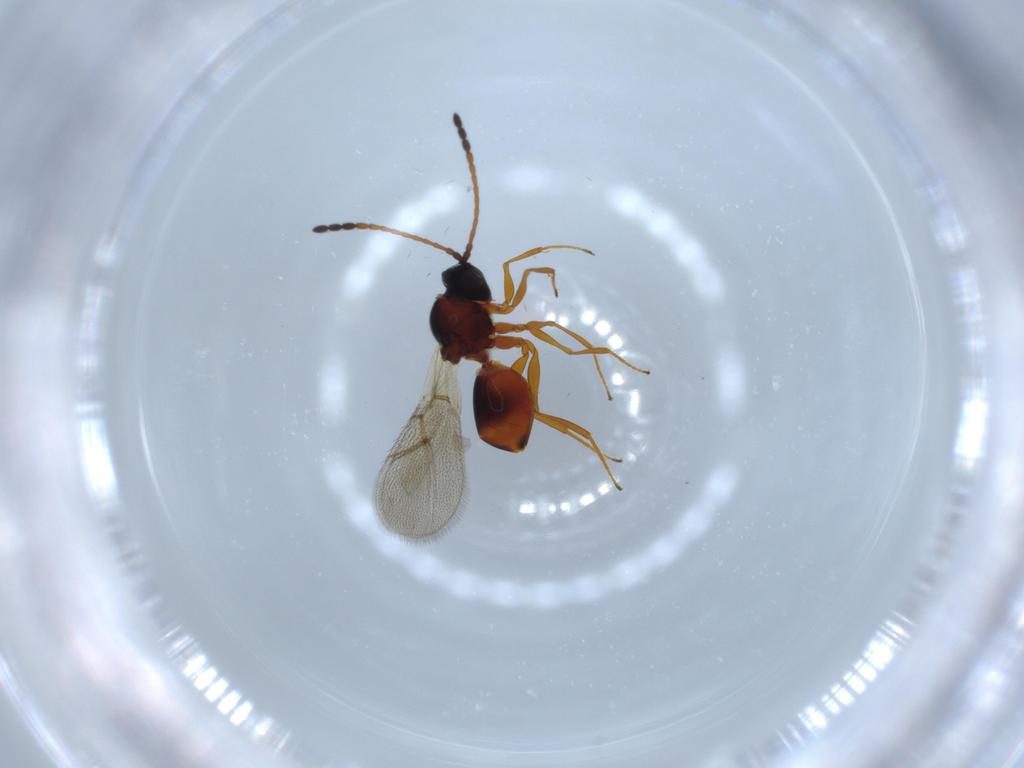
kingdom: Animalia
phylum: Arthropoda
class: Insecta
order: Hymenoptera
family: Figitidae
